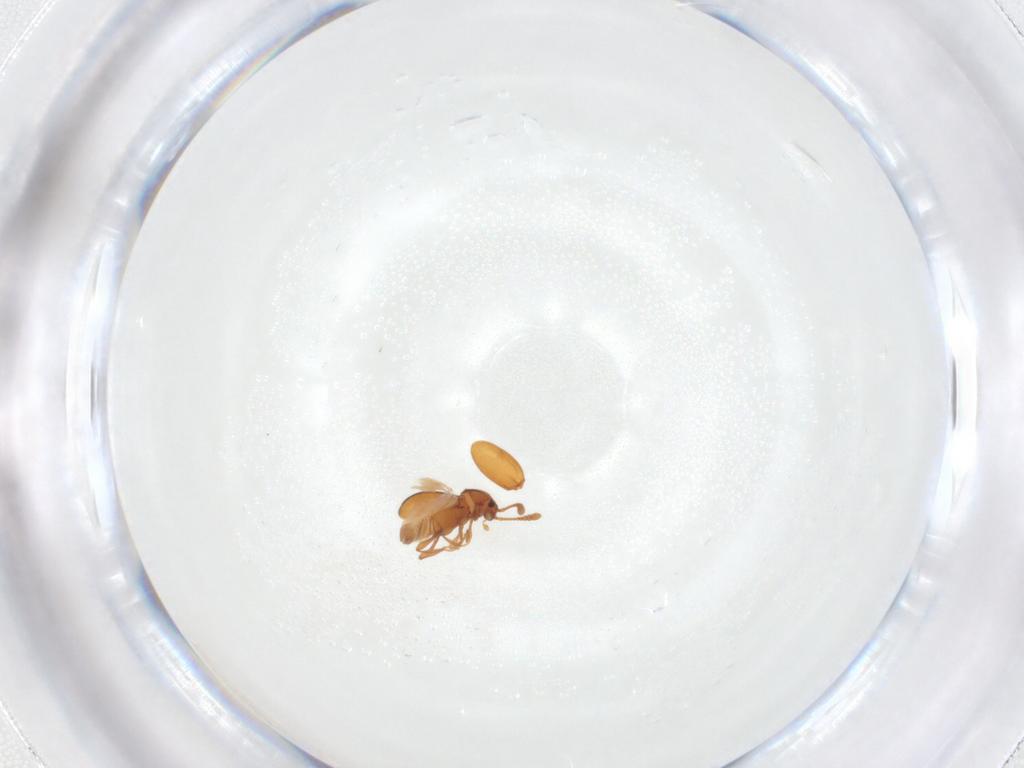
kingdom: Animalia
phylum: Arthropoda
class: Insecta
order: Coleoptera
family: Staphylinidae
